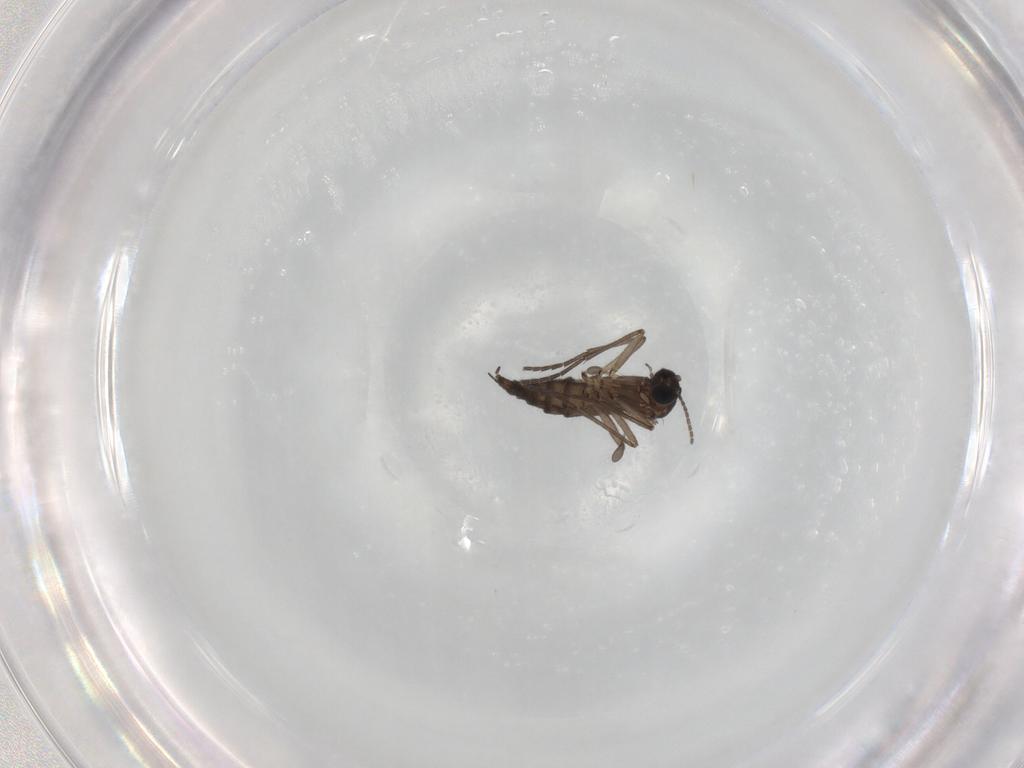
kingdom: Animalia
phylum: Arthropoda
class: Insecta
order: Diptera
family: Sciaridae
